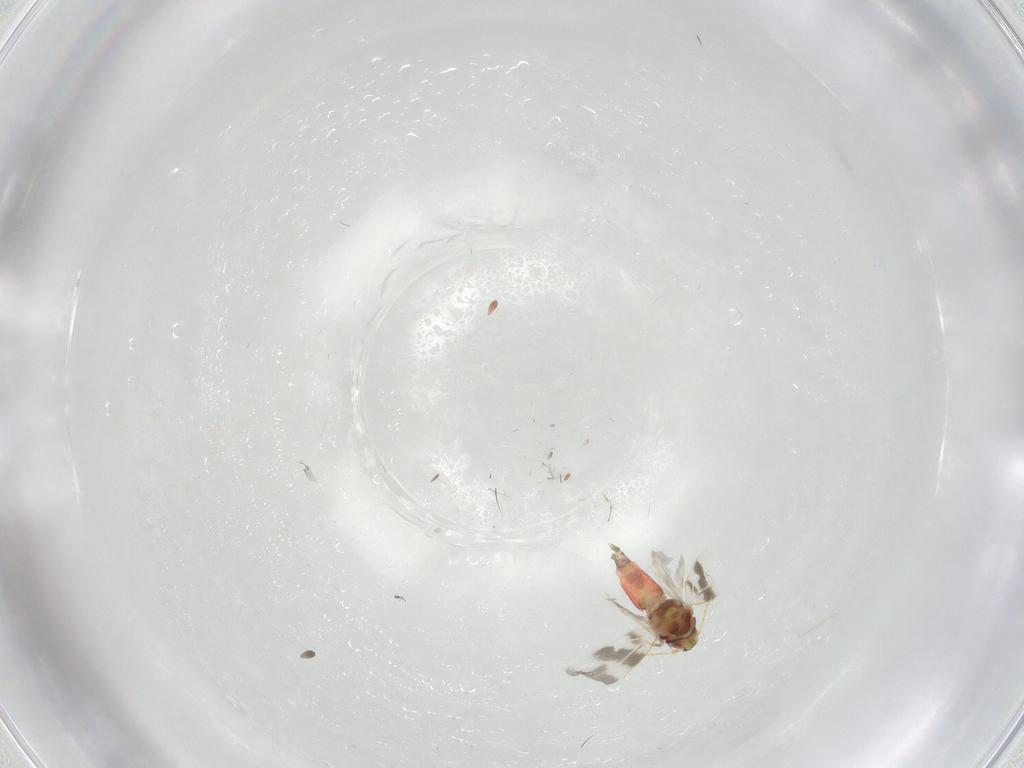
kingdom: Animalia
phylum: Arthropoda
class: Insecta
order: Hemiptera
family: Aleyrodidae
